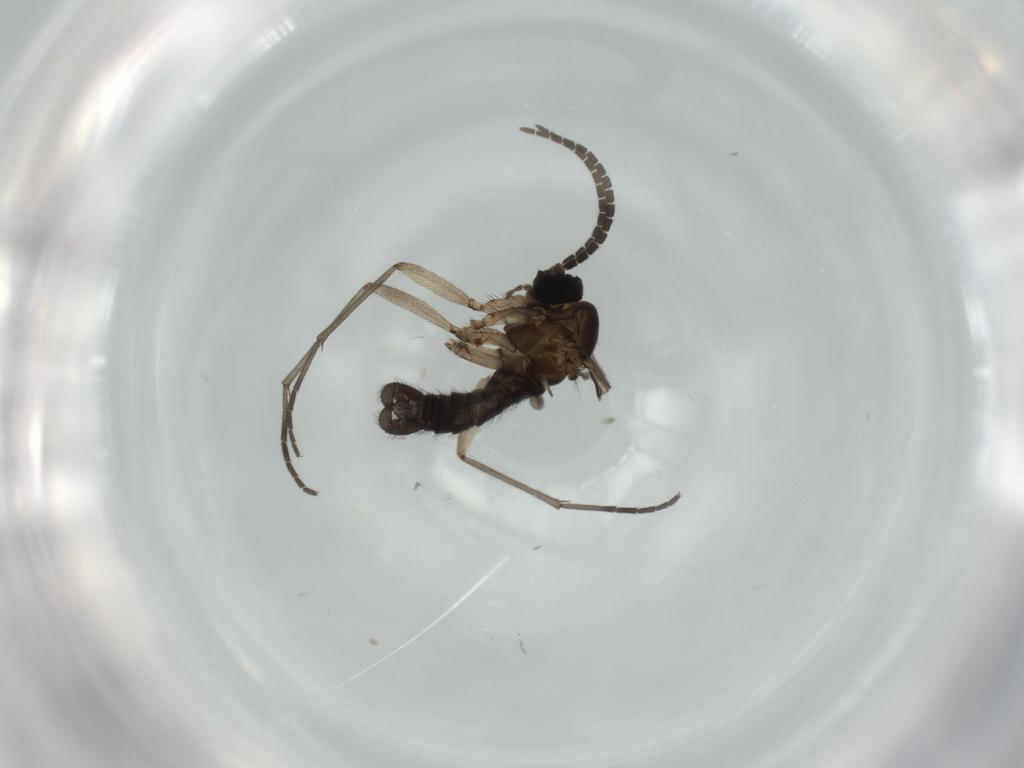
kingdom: Animalia
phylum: Arthropoda
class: Insecta
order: Diptera
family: Sciaridae
